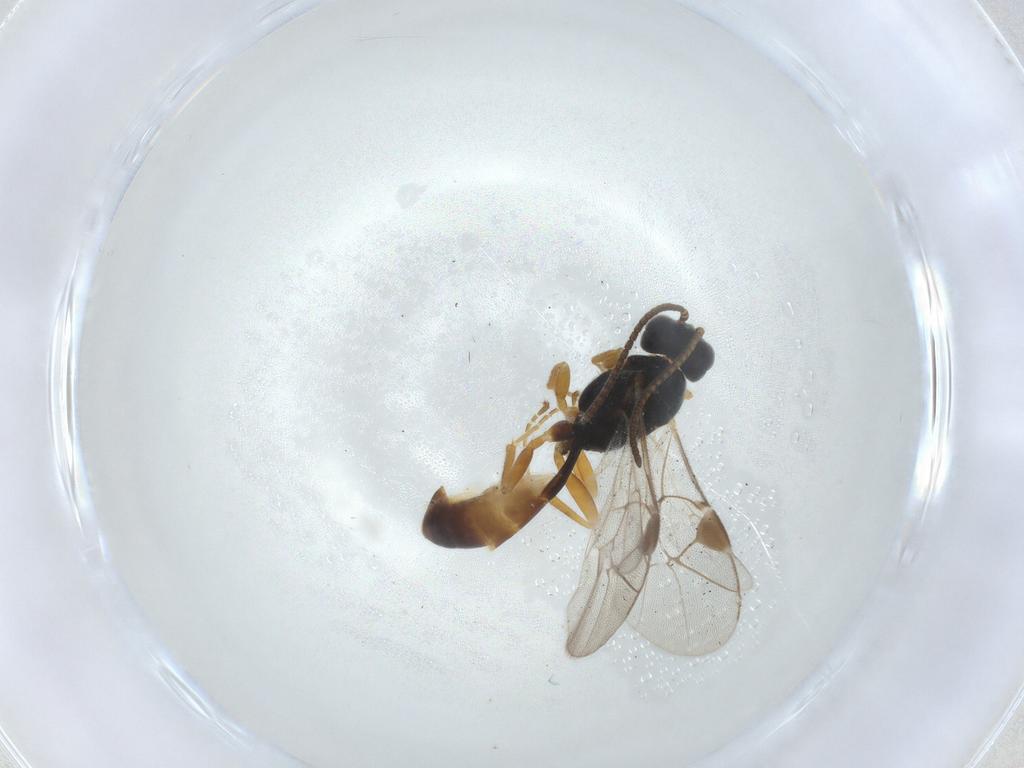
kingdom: Animalia
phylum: Arthropoda
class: Insecta
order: Hymenoptera
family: Ichneumonidae
